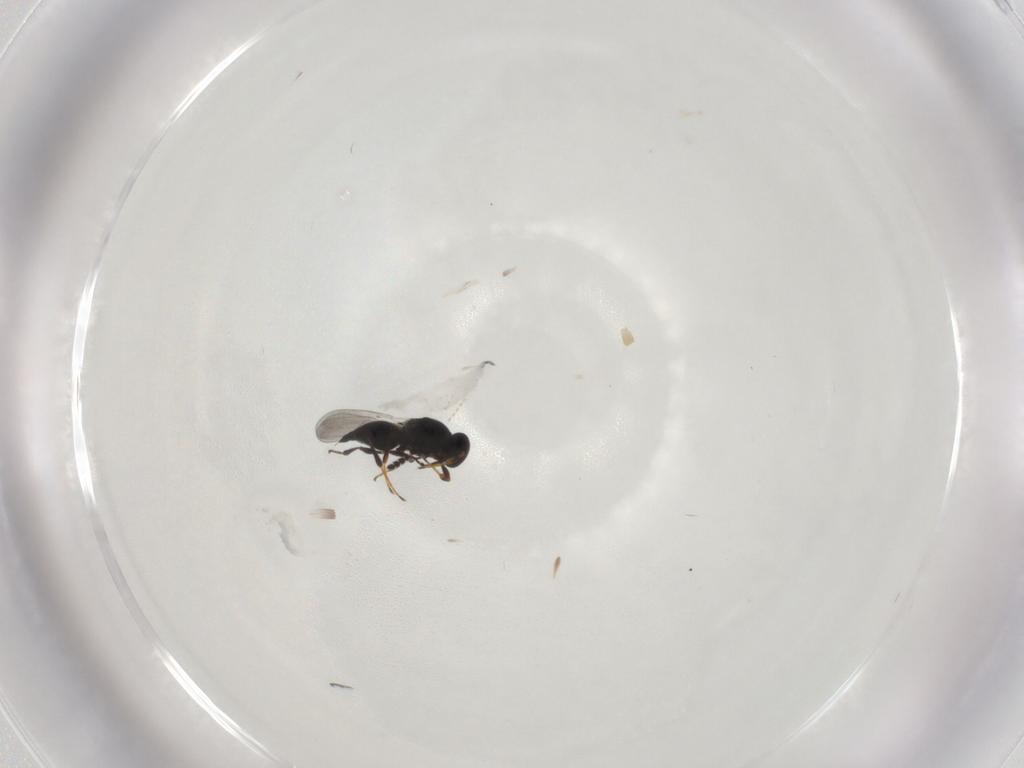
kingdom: Animalia
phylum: Arthropoda
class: Insecta
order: Hymenoptera
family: Platygastridae
